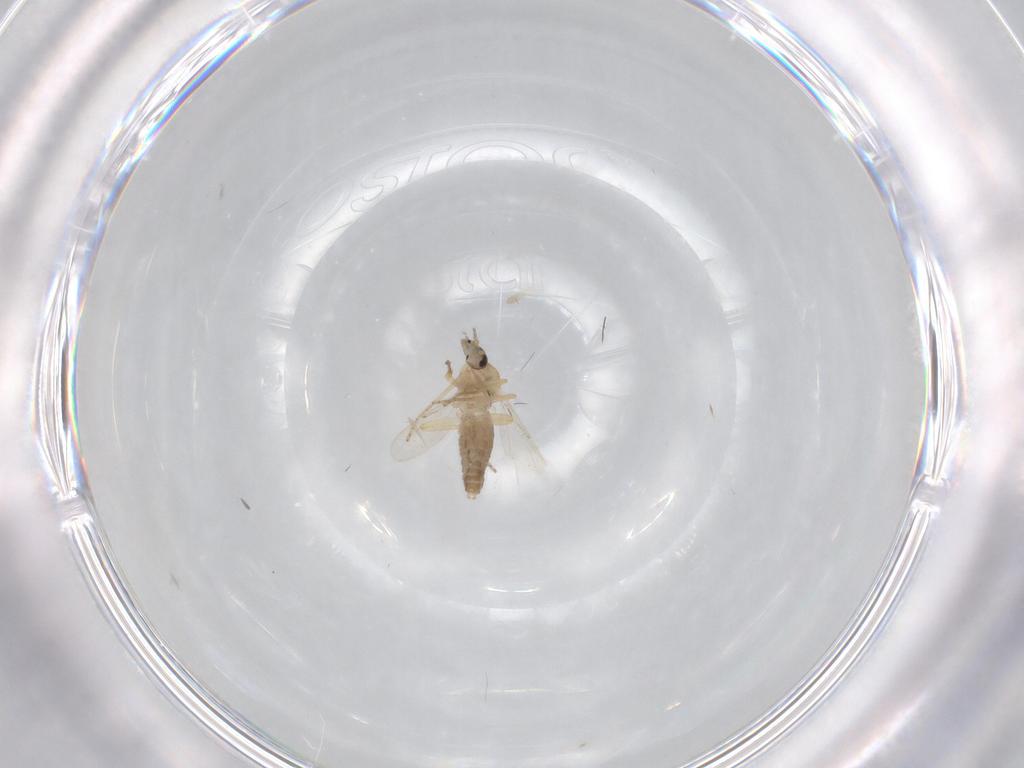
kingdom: Animalia
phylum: Arthropoda
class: Insecta
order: Diptera
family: Ceratopogonidae
